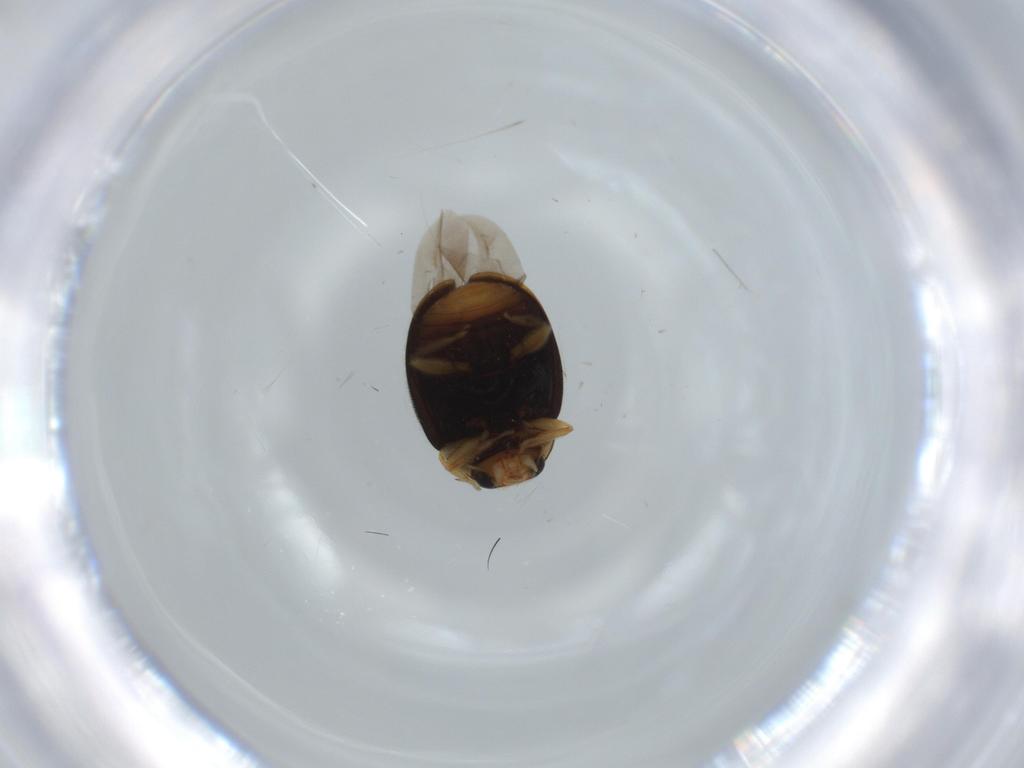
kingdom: Animalia
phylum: Arthropoda
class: Insecta
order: Coleoptera
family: Chrysomelidae
